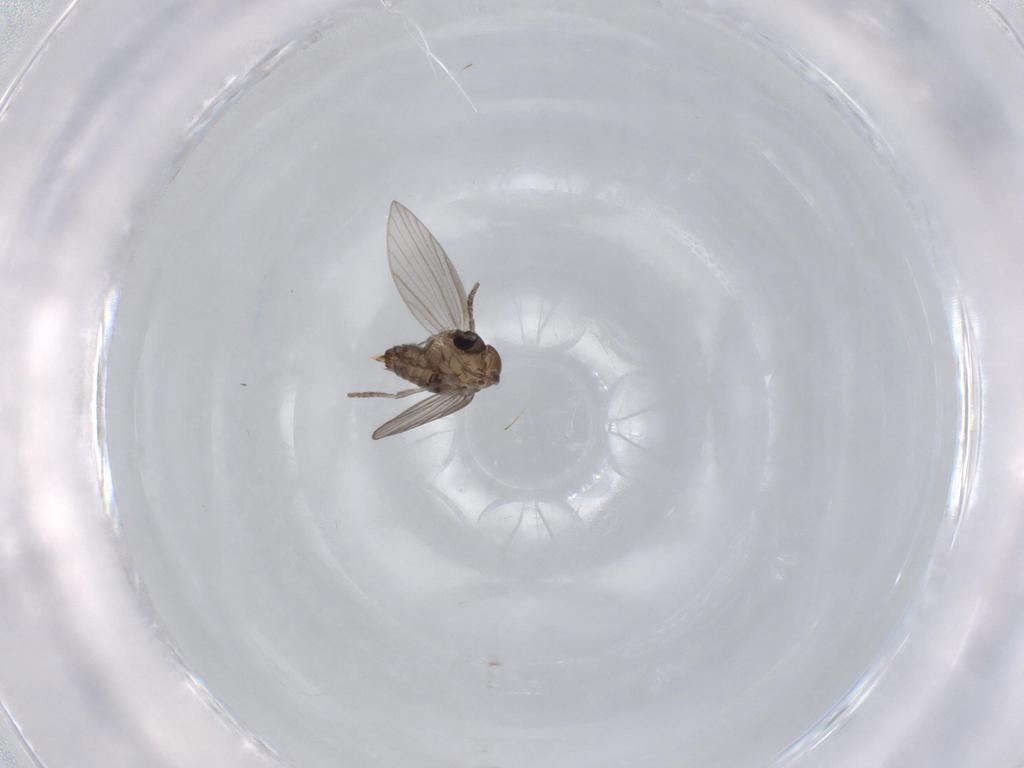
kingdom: Animalia
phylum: Arthropoda
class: Insecta
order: Diptera
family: Psychodidae
